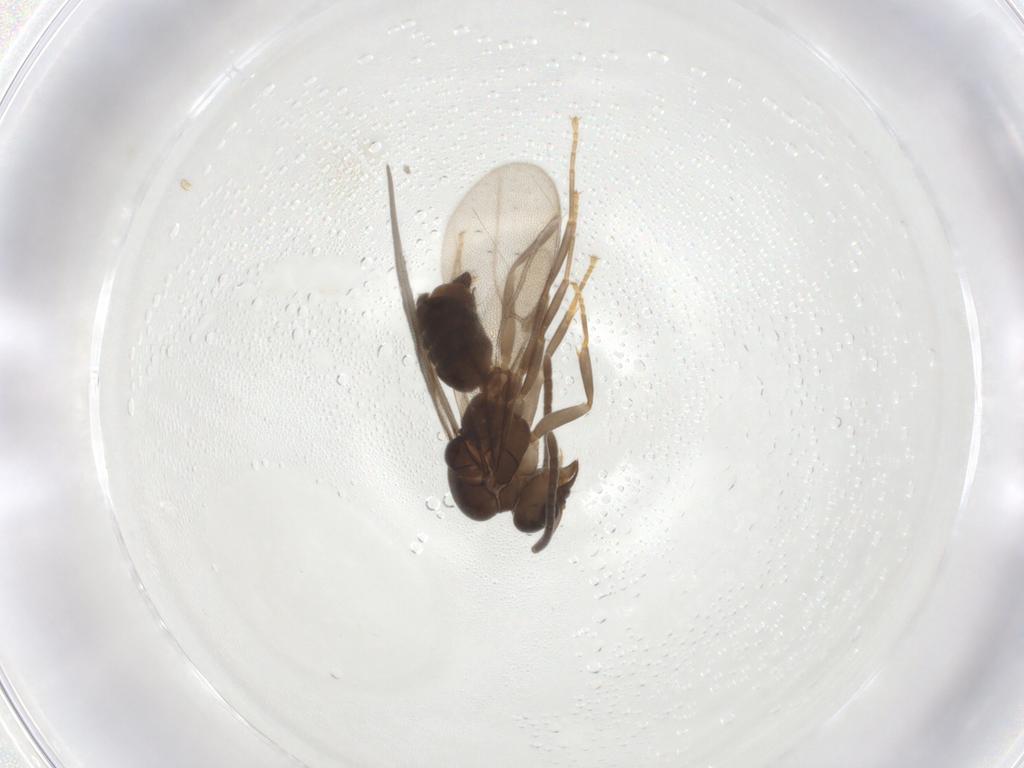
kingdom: Animalia
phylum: Arthropoda
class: Insecta
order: Hymenoptera
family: Formicidae
